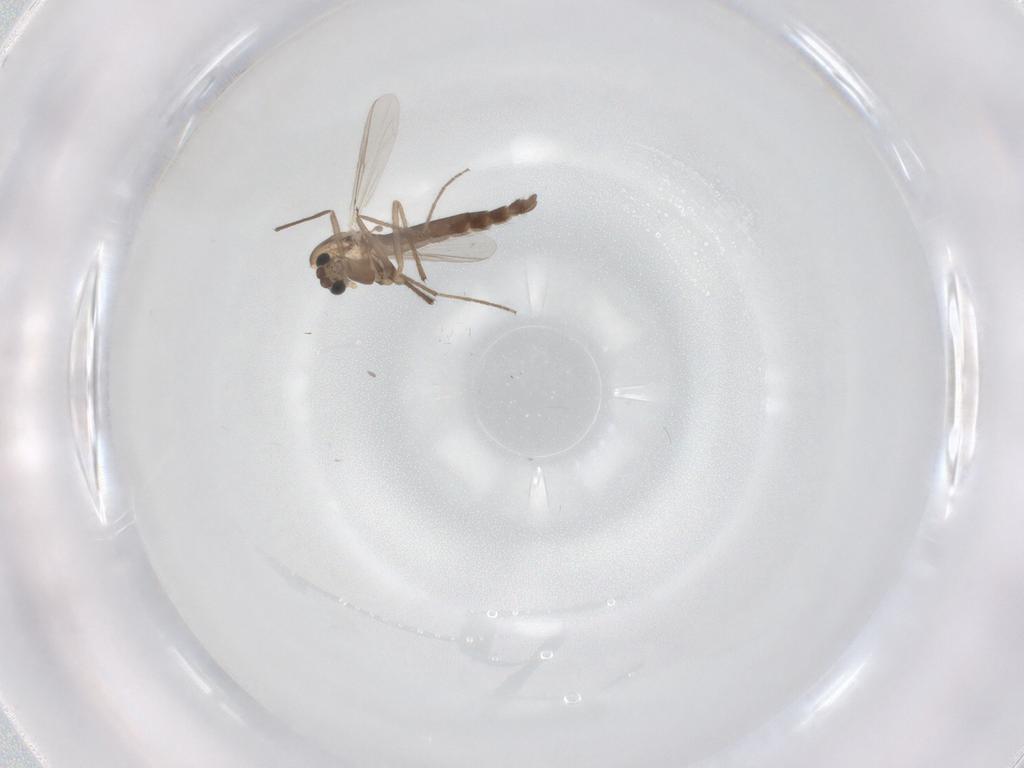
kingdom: Animalia
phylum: Arthropoda
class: Insecta
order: Diptera
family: Chironomidae
